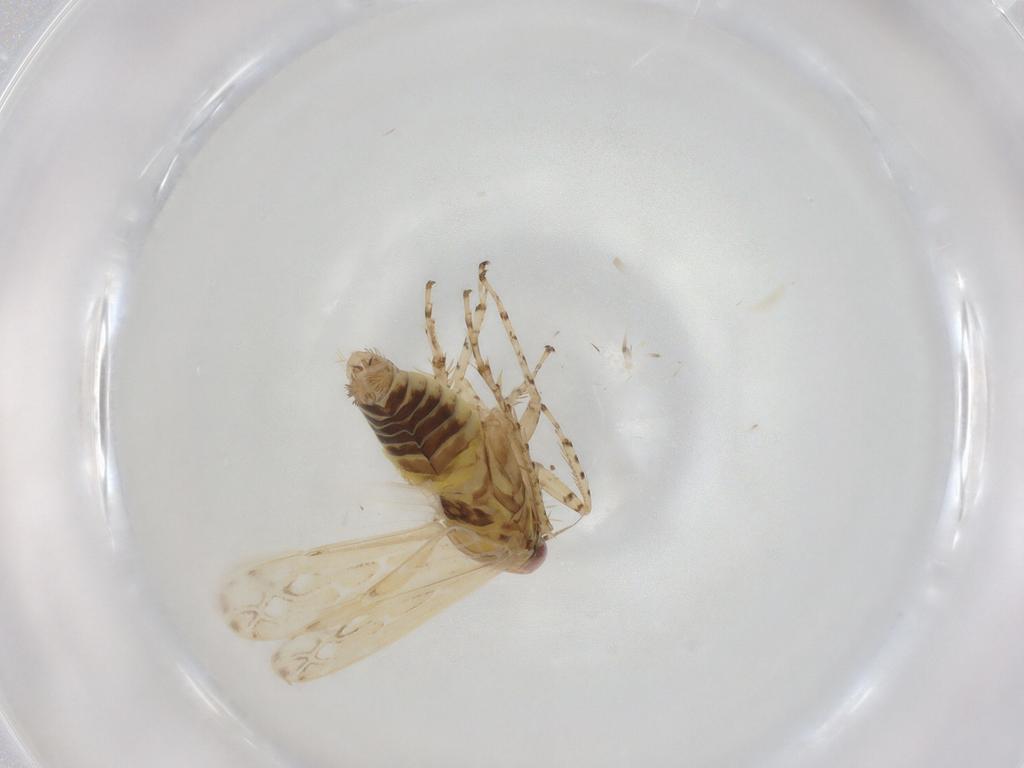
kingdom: Animalia
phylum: Arthropoda
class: Insecta
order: Hemiptera
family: Cicadellidae
